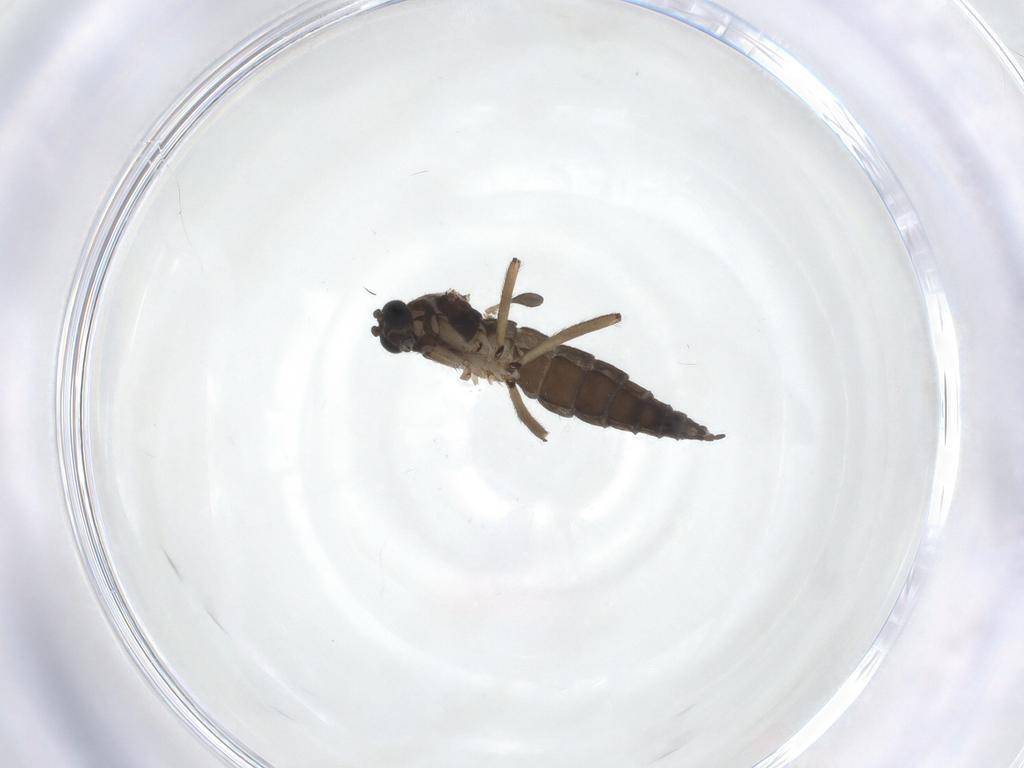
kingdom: Animalia
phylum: Arthropoda
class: Insecta
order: Diptera
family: Sciaridae
